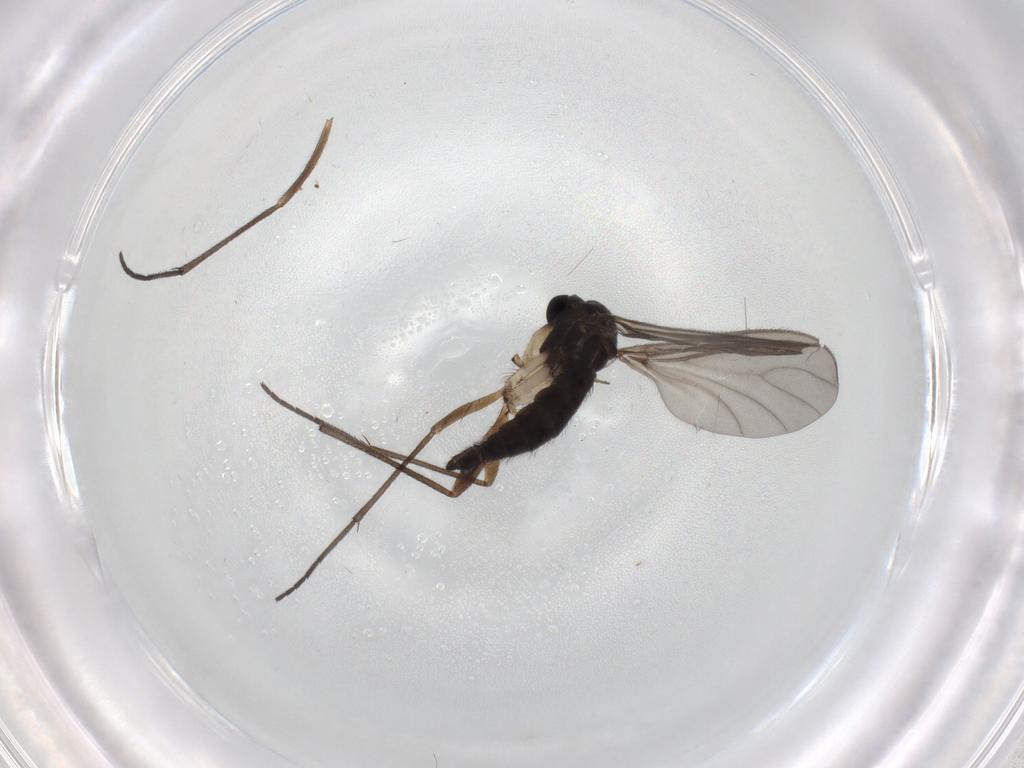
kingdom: Animalia
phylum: Arthropoda
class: Insecta
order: Diptera
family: Sciaridae
